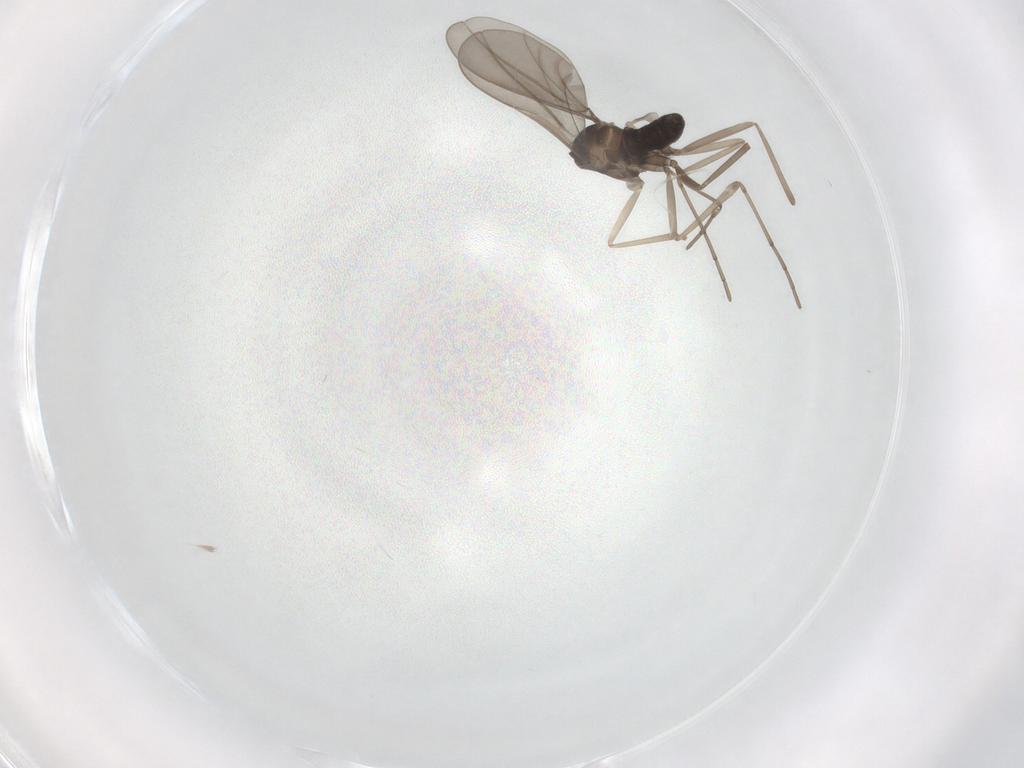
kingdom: Animalia
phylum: Arthropoda
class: Insecta
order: Diptera
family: Cecidomyiidae
